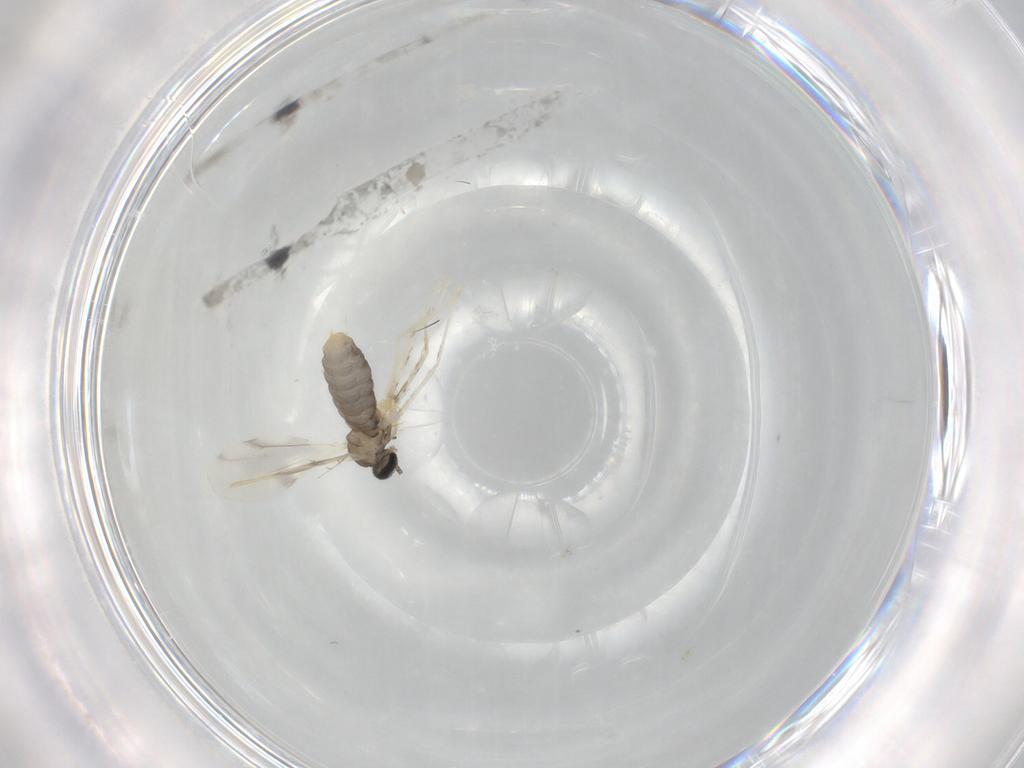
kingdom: Animalia
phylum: Arthropoda
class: Insecta
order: Diptera
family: Cecidomyiidae
